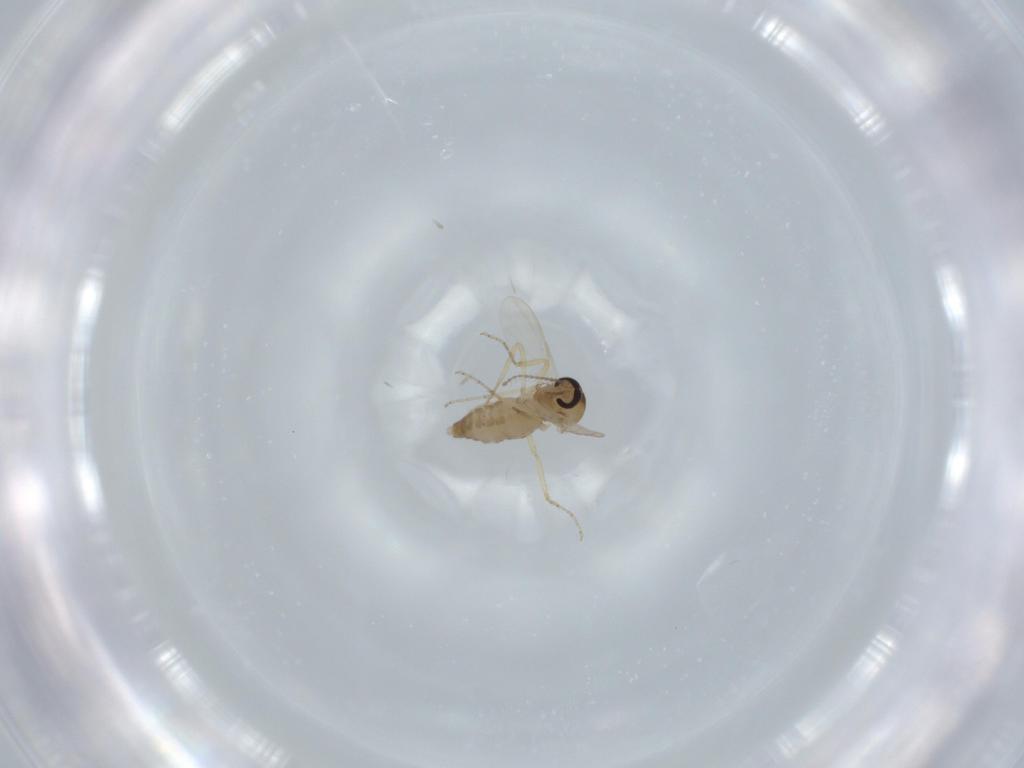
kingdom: Animalia
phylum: Arthropoda
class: Insecta
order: Diptera
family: Ceratopogonidae
